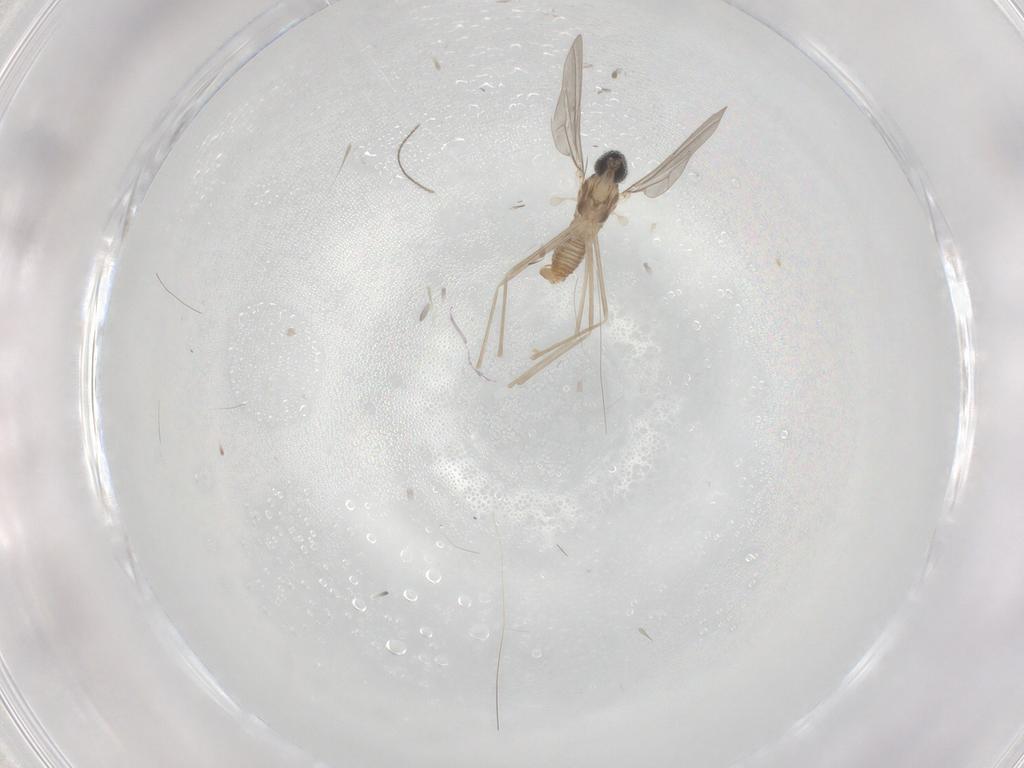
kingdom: Animalia
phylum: Arthropoda
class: Insecta
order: Diptera
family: Cecidomyiidae
